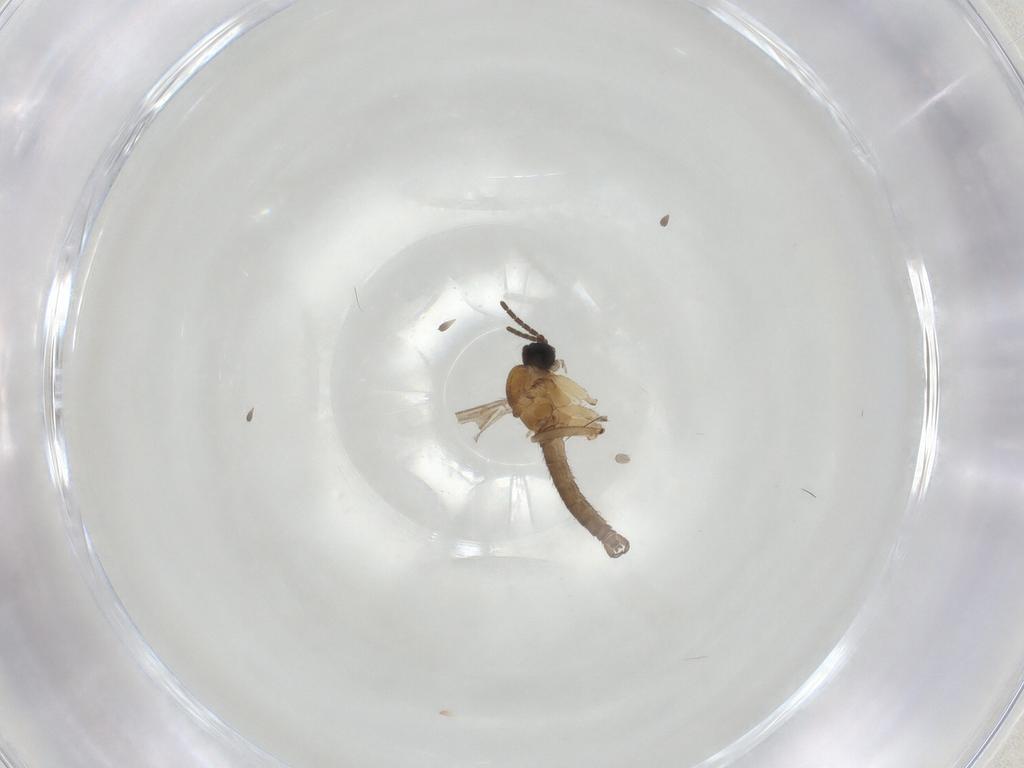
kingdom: Animalia
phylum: Arthropoda
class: Insecta
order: Diptera
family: Sciaridae
